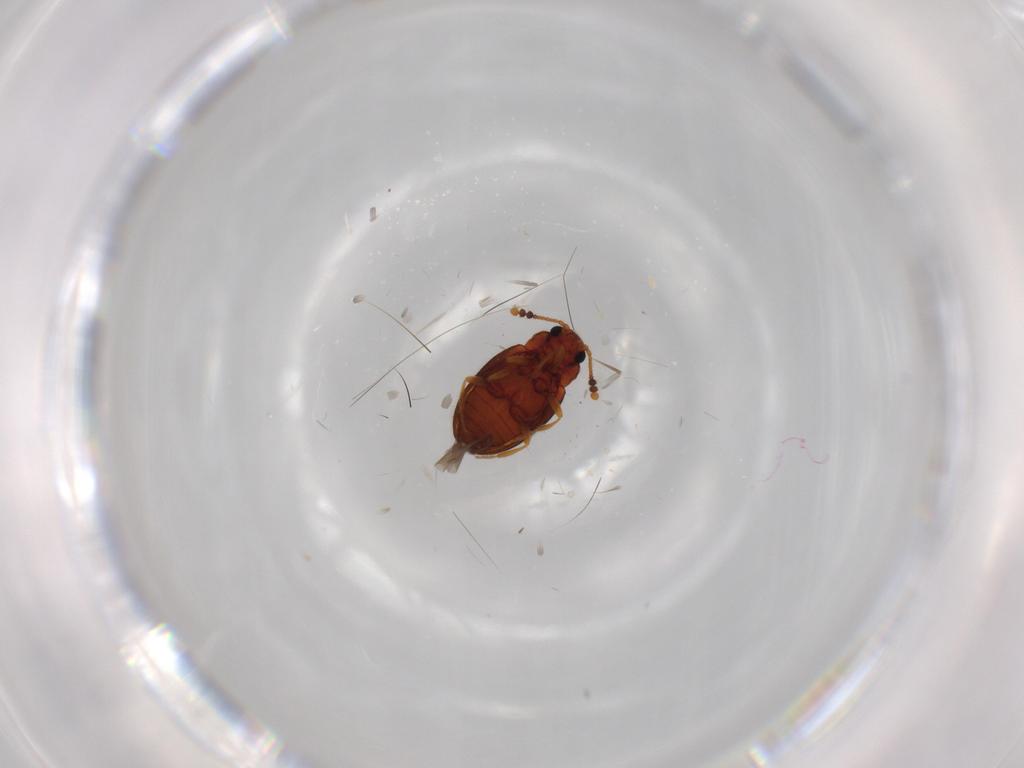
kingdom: Animalia
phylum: Arthropoda
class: Insecta
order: Coleoptera
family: Erotylidae
